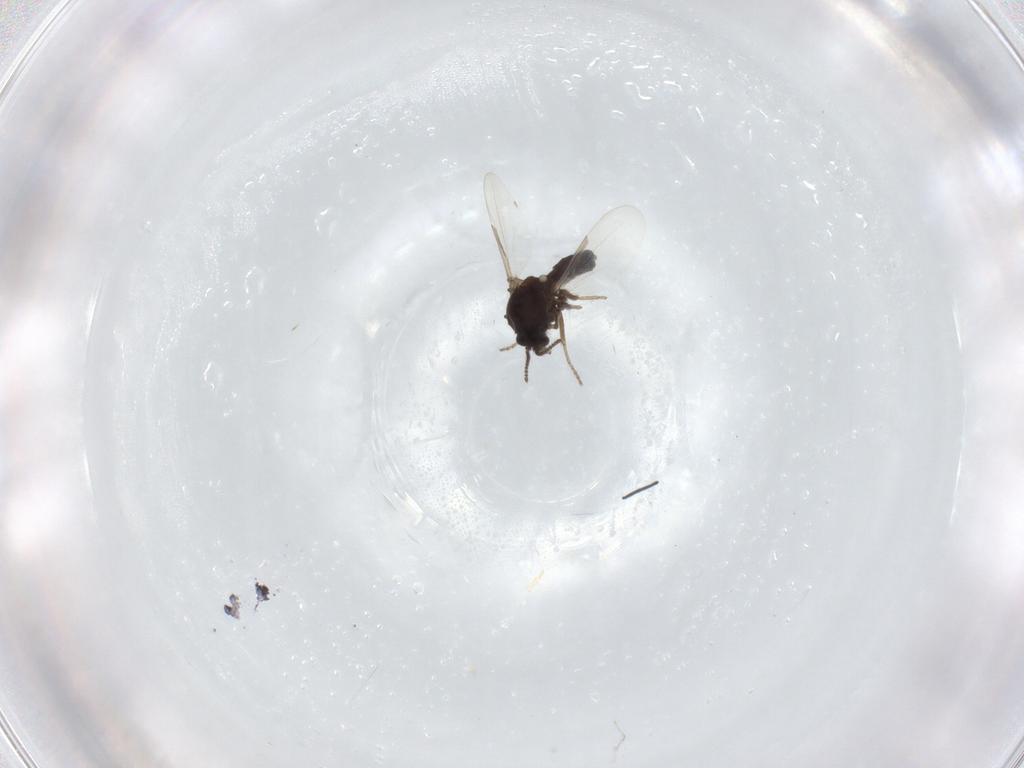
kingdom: Animalia
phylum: Arthropoda
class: Insecta
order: Diptera
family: Ceratopogonidae
